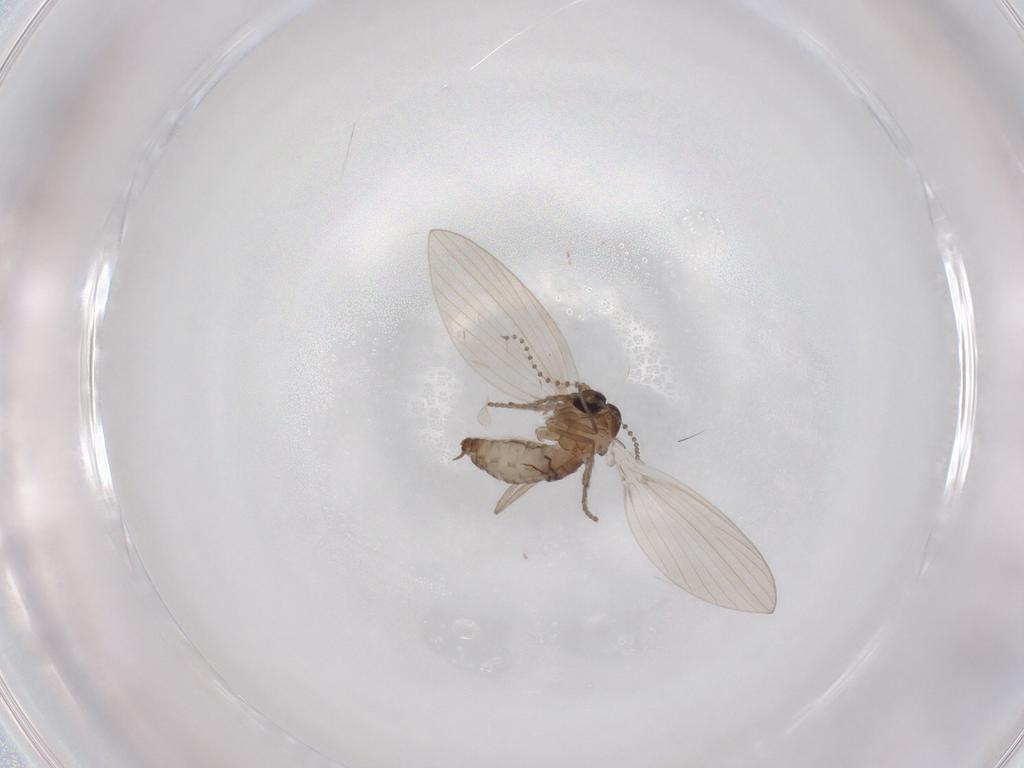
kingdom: Animalia
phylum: Arthropoda
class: Insecta
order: Diptera
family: Psychodidae
